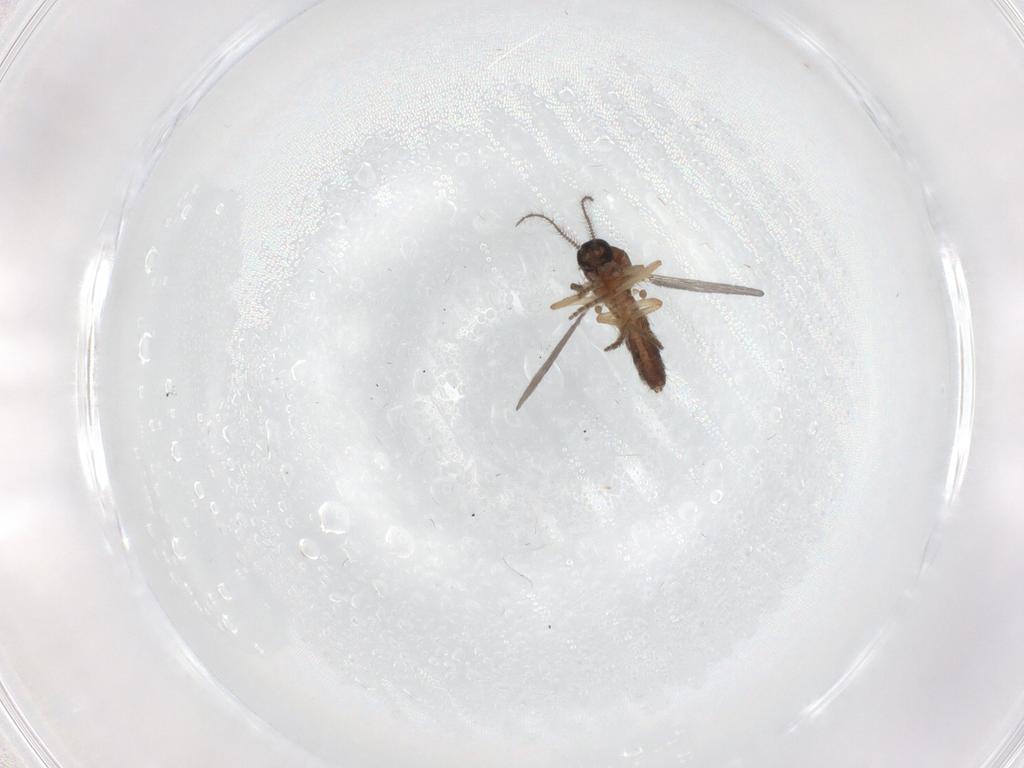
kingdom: Animalia
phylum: Arthropoda
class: Insecta
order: Diptera
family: Ceratopogonidae
